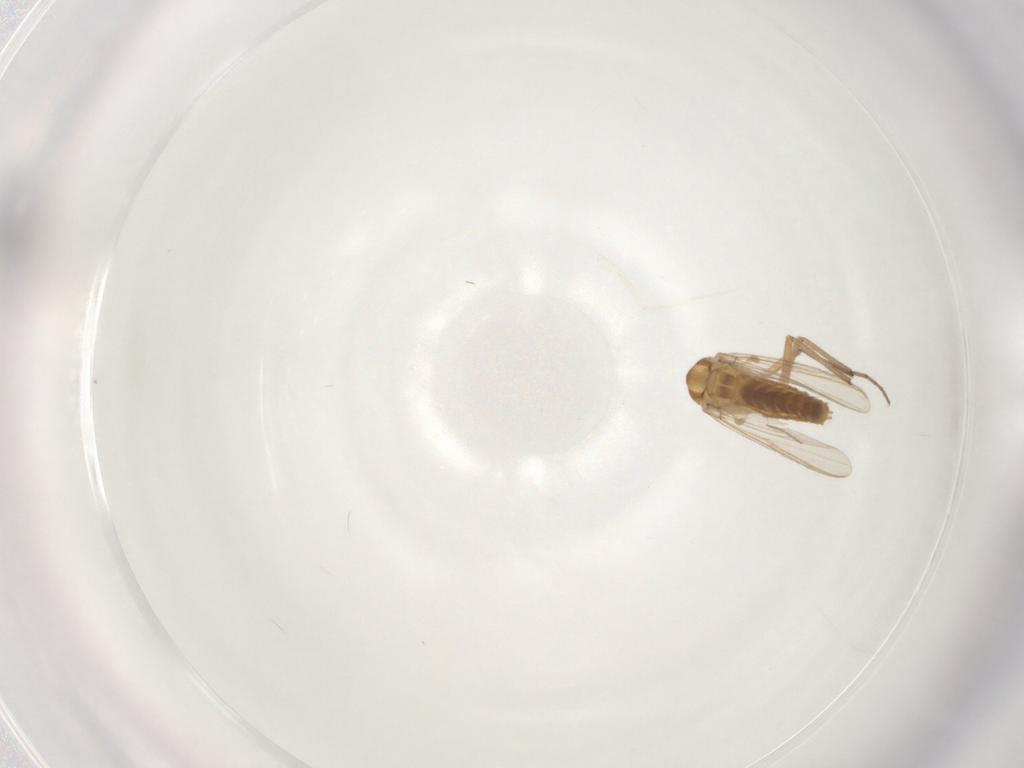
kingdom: Animalia
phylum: Arthropoda
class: Insecta
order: Diptera
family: Chironomidae
